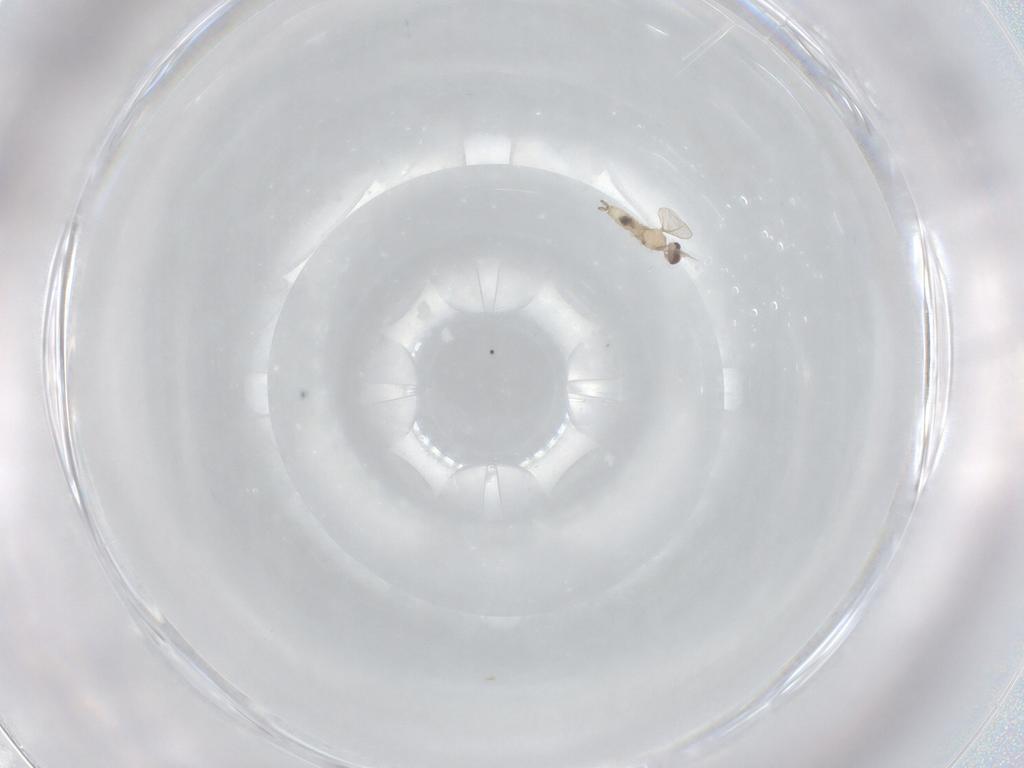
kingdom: Animalia
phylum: Arthropoda
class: Insecta
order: Diptera
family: Cecidomyiidae
